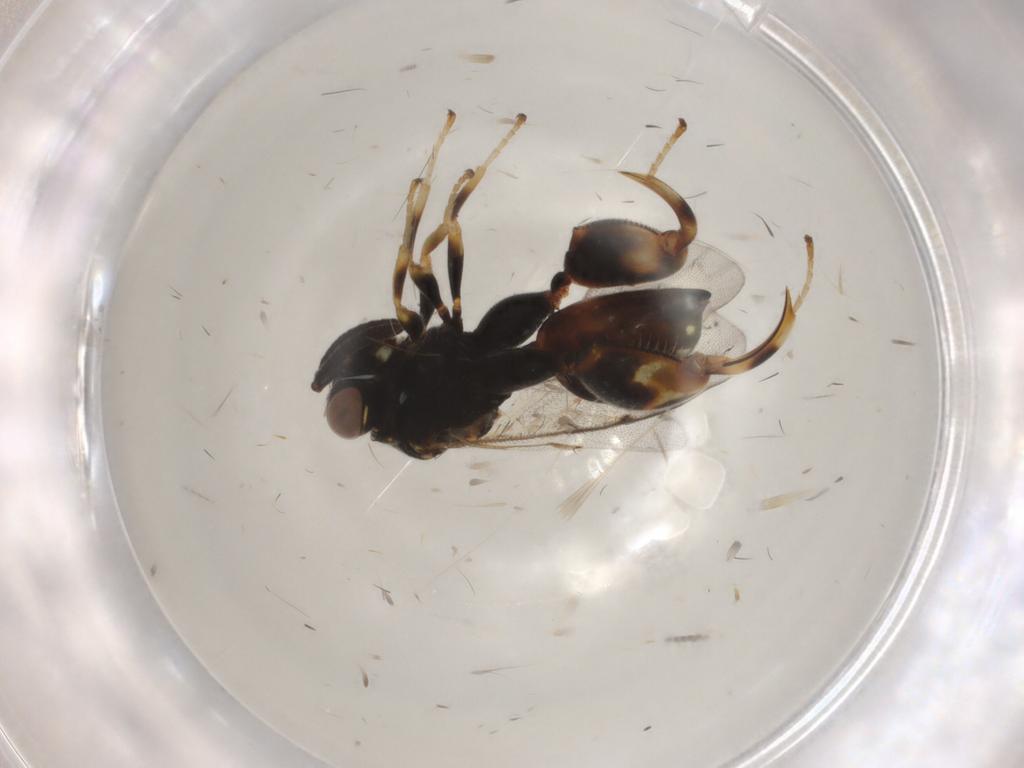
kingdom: Animalia
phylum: Arthropoda
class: Insecta
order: Hymenoptera
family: Chalcididae
